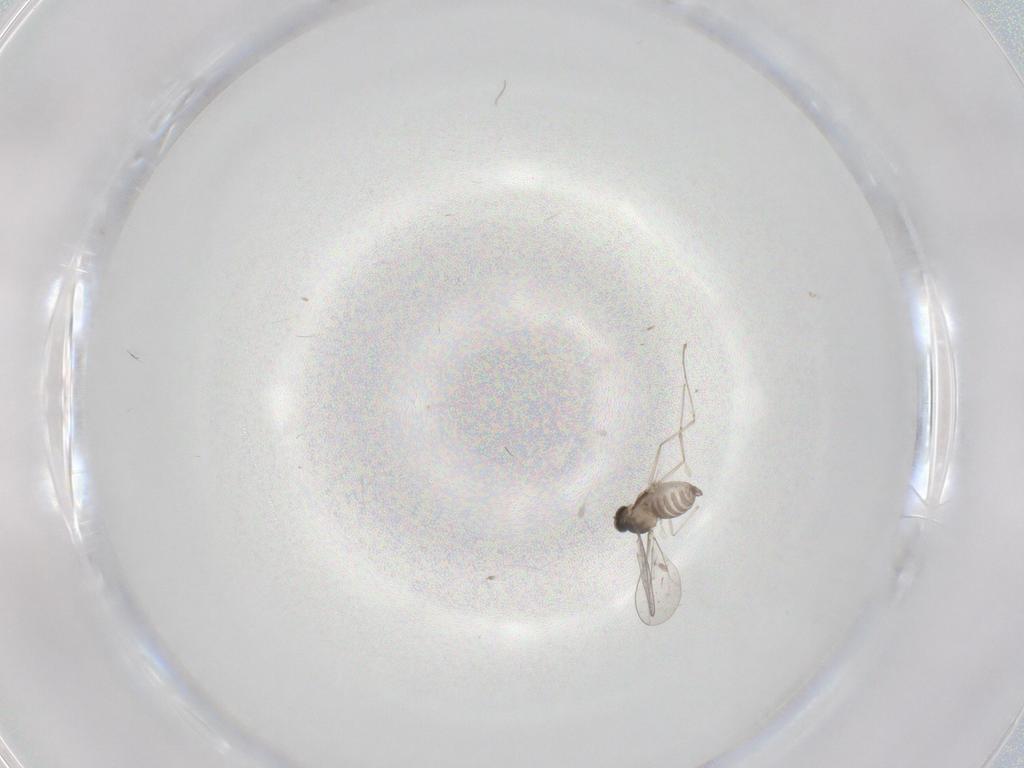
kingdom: Animalia
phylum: Arthropoda
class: Insecta
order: Diptera
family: Cecidomyiidae
